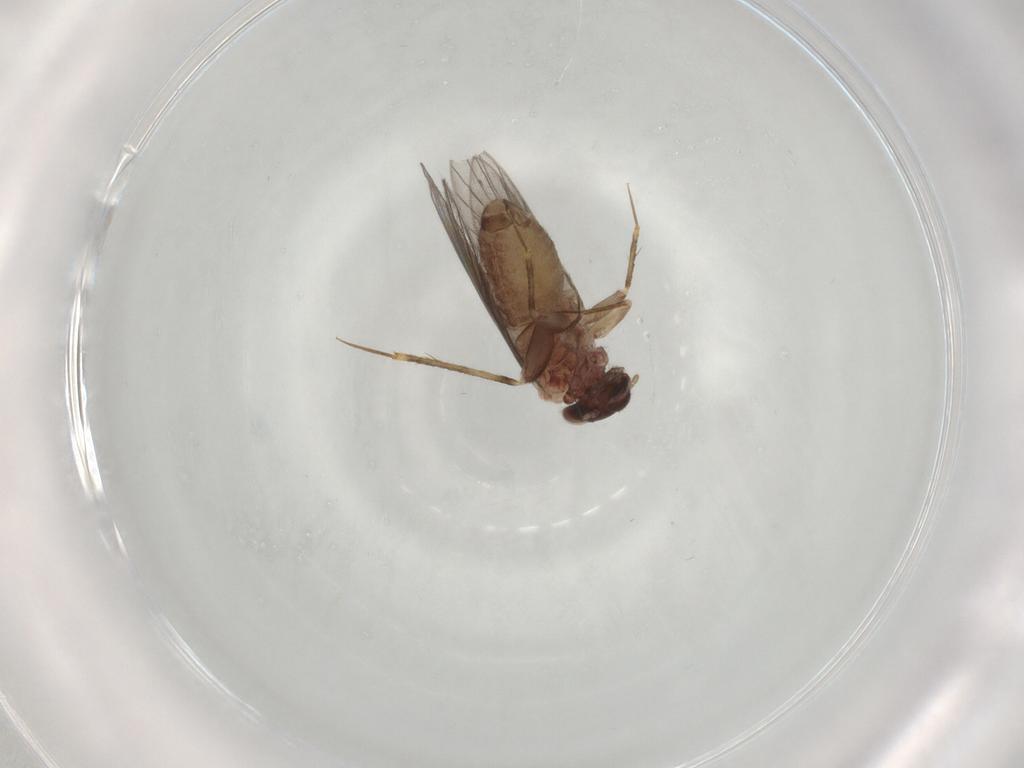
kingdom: Animalia
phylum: Arthropoda
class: Insecta
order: Psocodea
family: Lepidopsocidae
